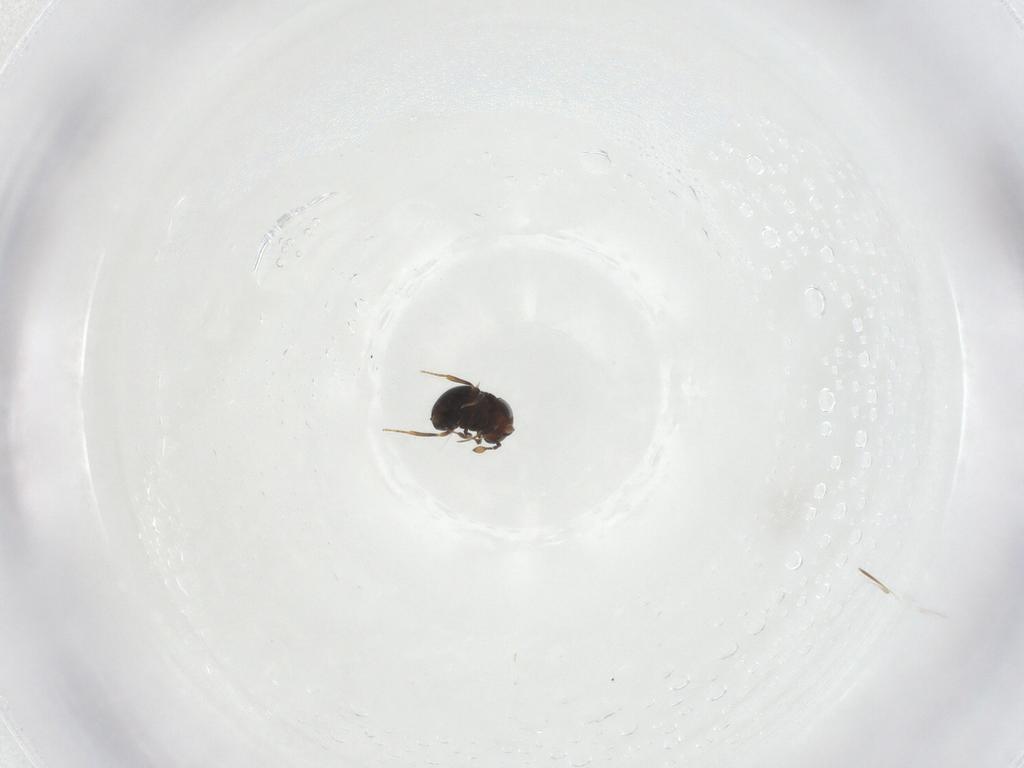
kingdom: Animalia
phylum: Arthropoda
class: Insecta
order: Hymenoptera
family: Scelionidae
